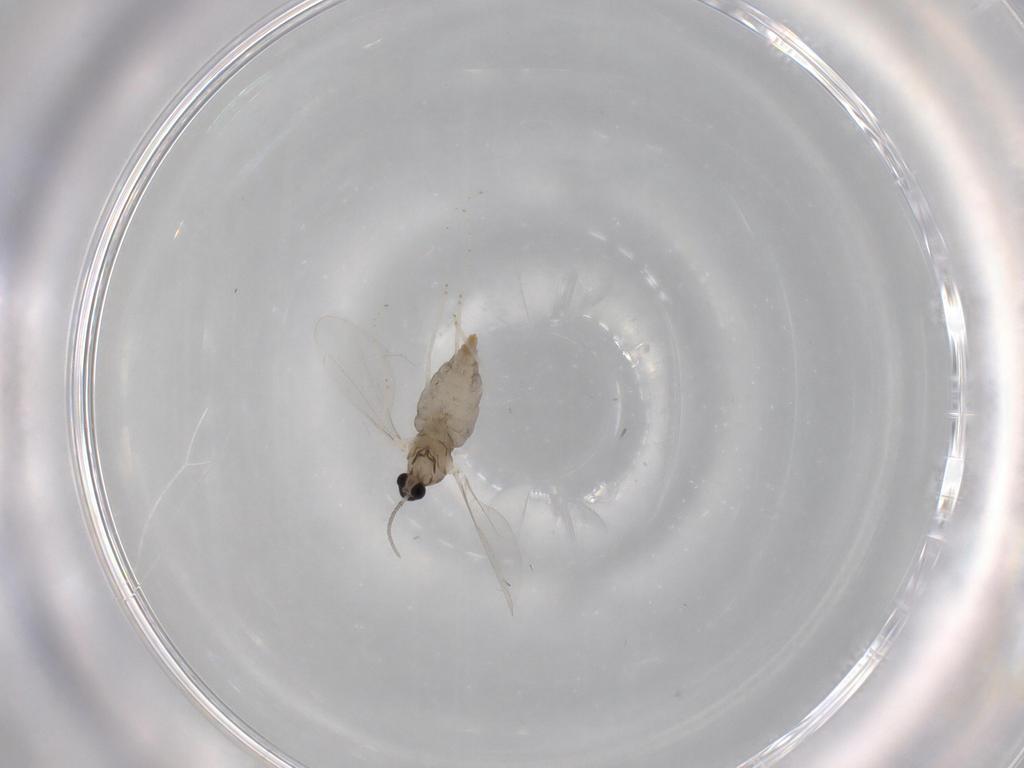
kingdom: Animalia
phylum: Arthropoda
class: Insecta
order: Diptera
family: Cecidomyiidae
